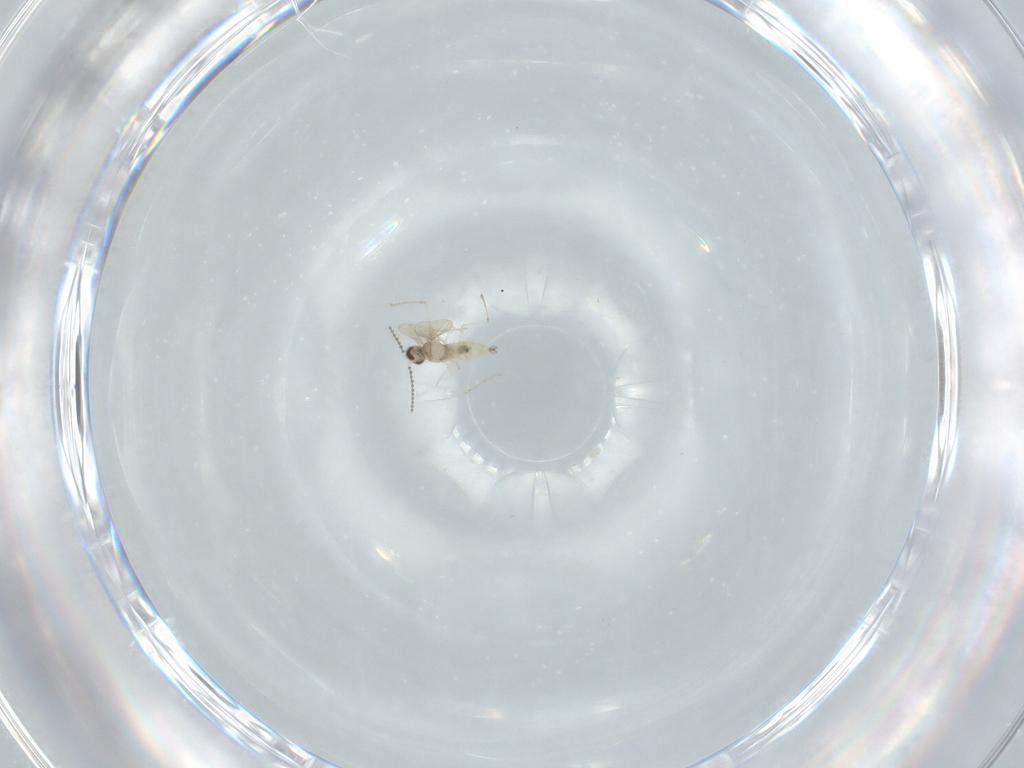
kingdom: Animalia
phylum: Arthropoda
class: Insecta
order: Diptera
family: Cecidomyiidae
